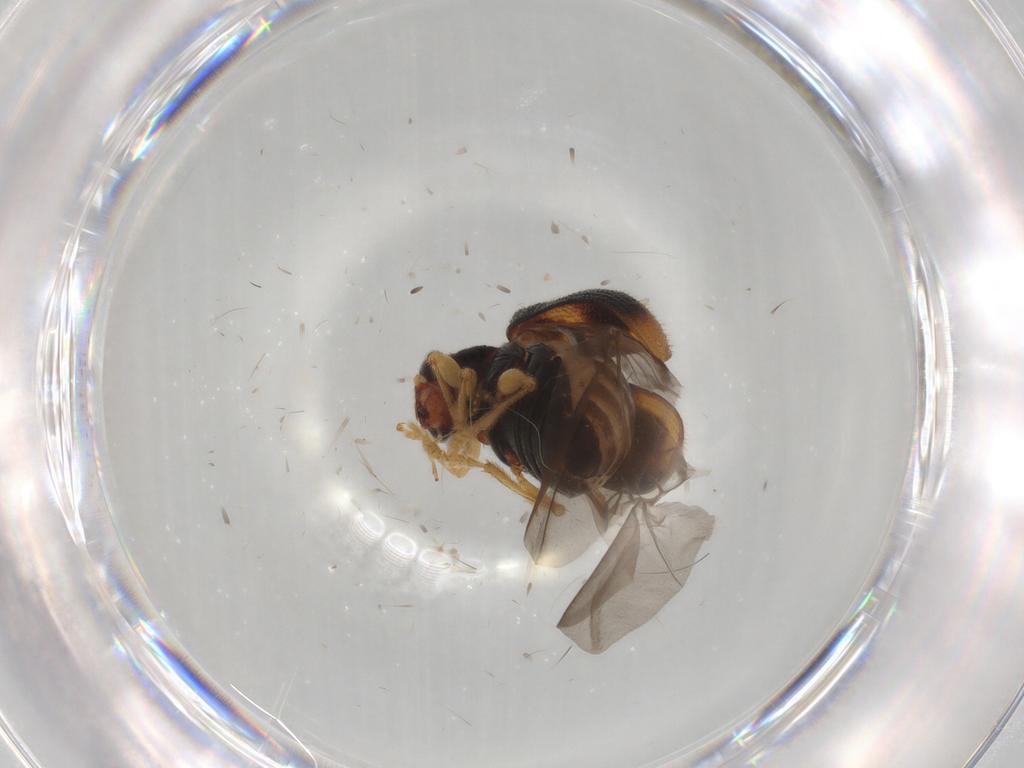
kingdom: Animalia
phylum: Arthropoda
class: Insecta
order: Coleoptera
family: Chrysomelidae
